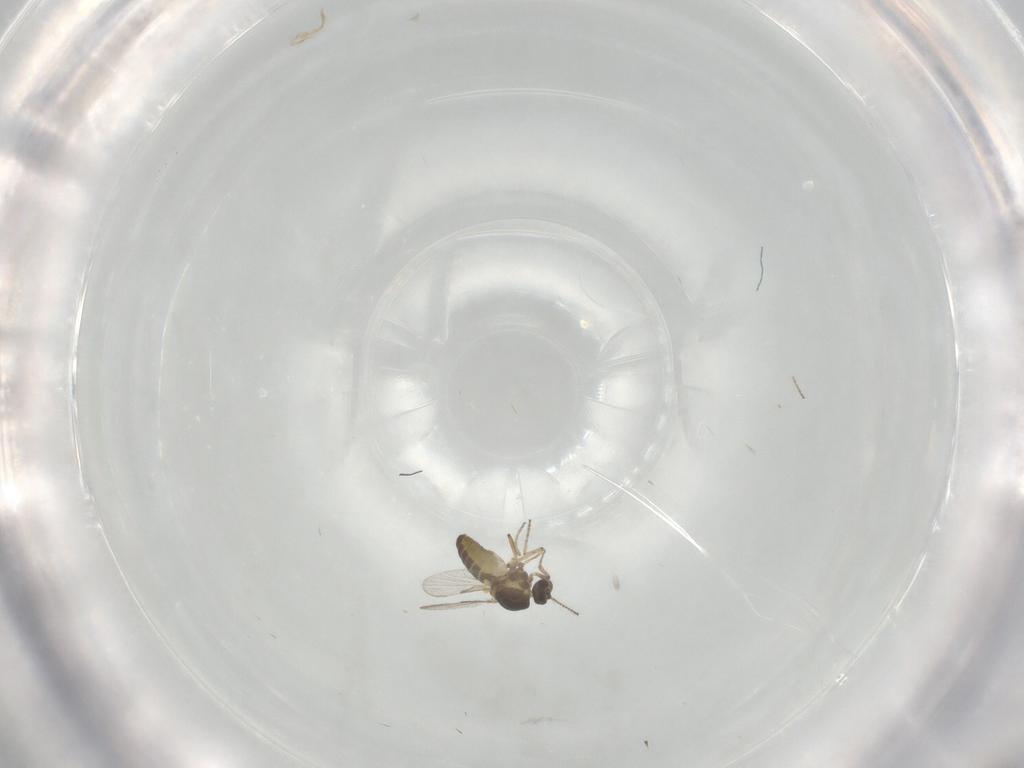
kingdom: Animalia
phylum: Arthropoda
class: Insecta
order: Diptera
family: Ceratopogonidae
